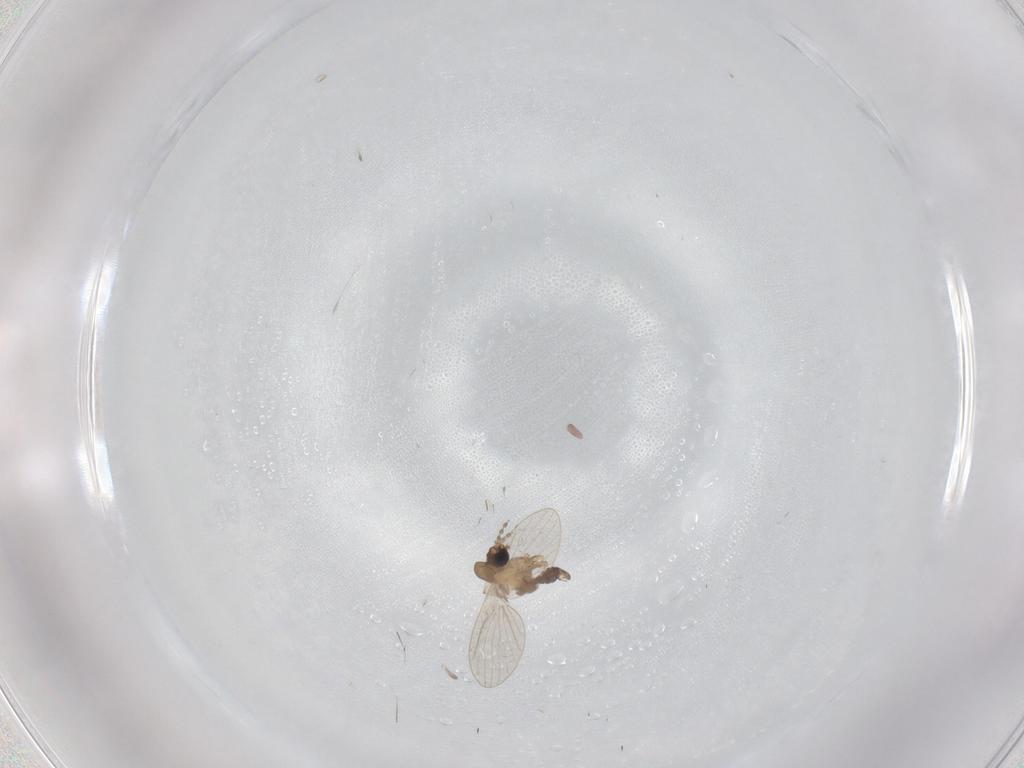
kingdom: Animalia
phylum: Arthropoda
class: Insecta
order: Diptera
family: Psychodidae
